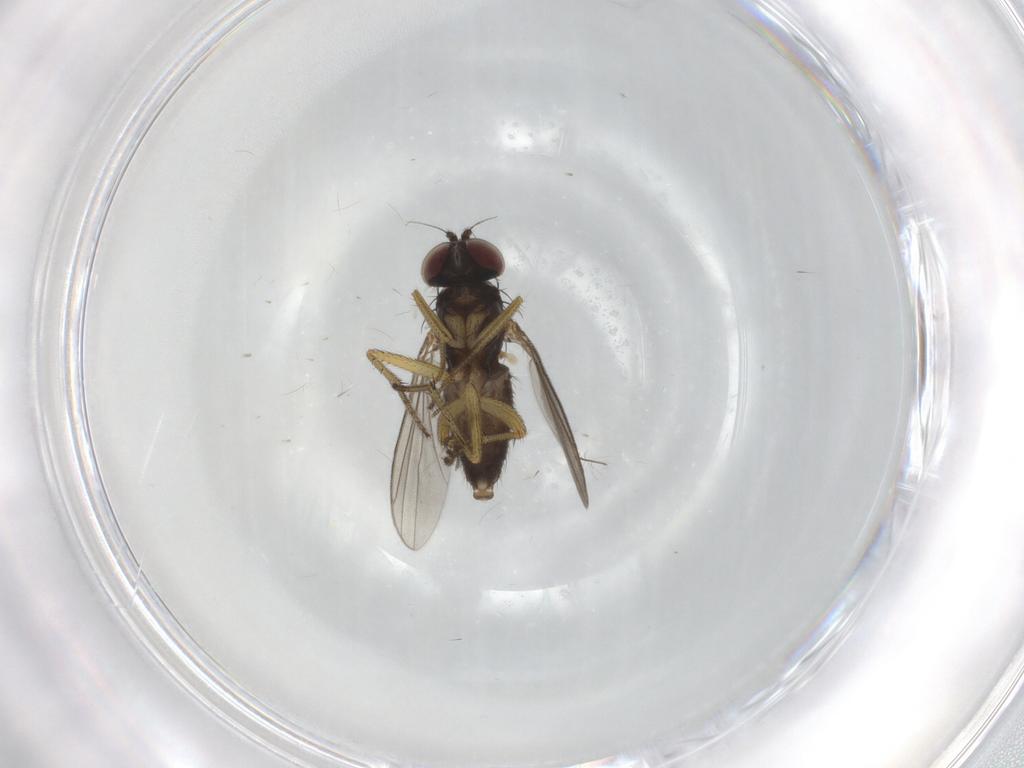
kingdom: Animalia
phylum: Arthropoda
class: Insecta
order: Diptera
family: Chironomidae
